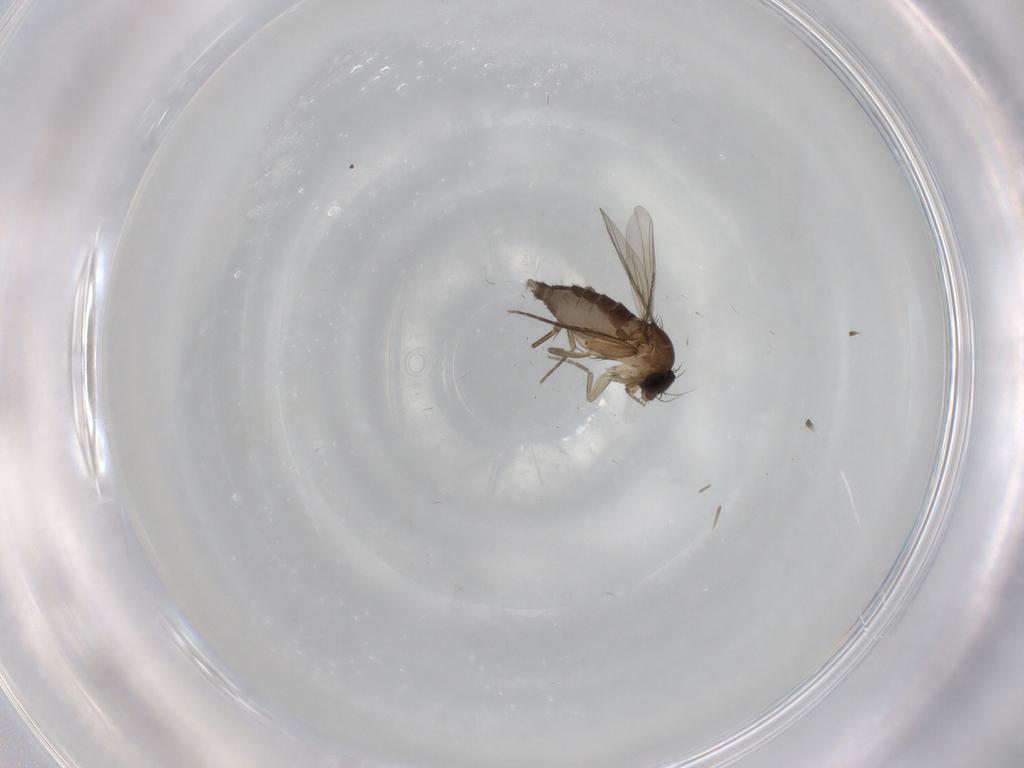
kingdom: Animalia
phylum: Arthropoda
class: Insecta
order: Diptera
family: Phoridae
